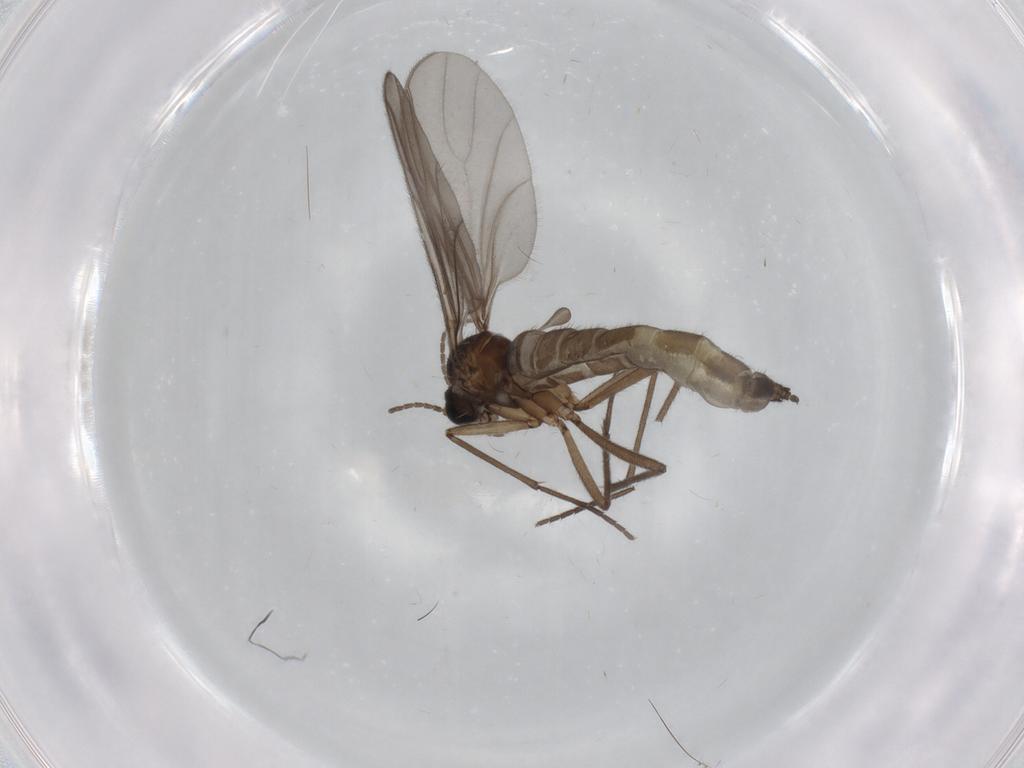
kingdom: Animalia
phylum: Arthropoda
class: Insecta
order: Diptera
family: Sciaridae
